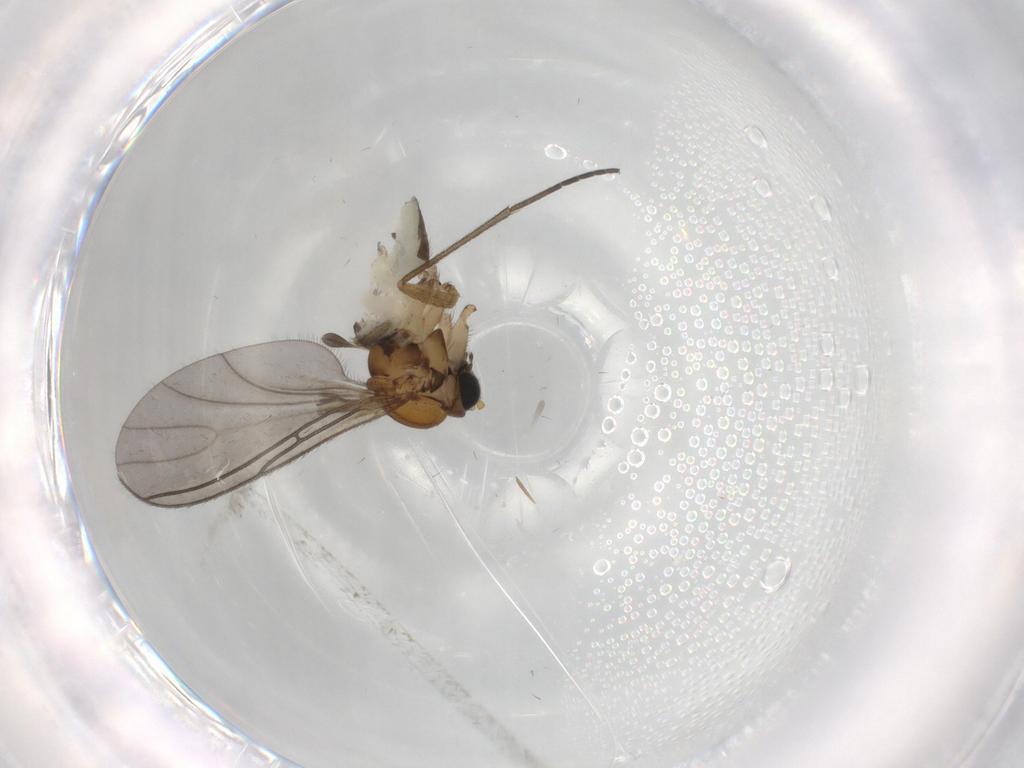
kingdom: Animalia
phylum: Arthropoda
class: Insecta
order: Diptera
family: Sciaridae
